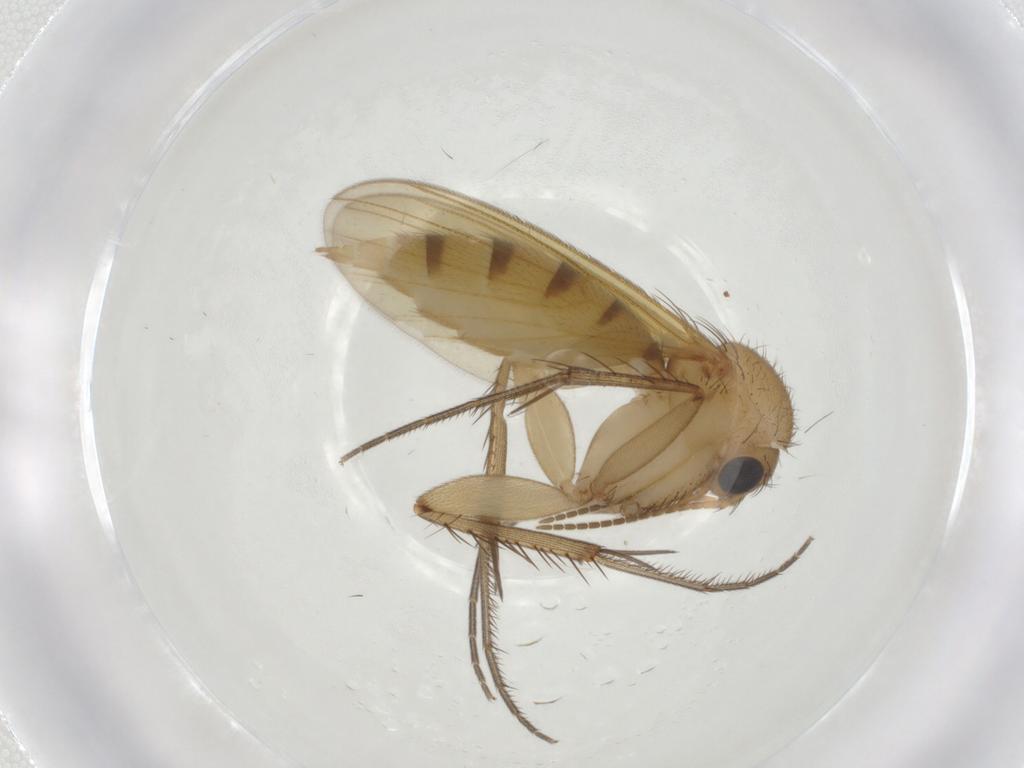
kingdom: Animalia
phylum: Arthropoda
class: Insecta
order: Diptera
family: Mycetophilidae
